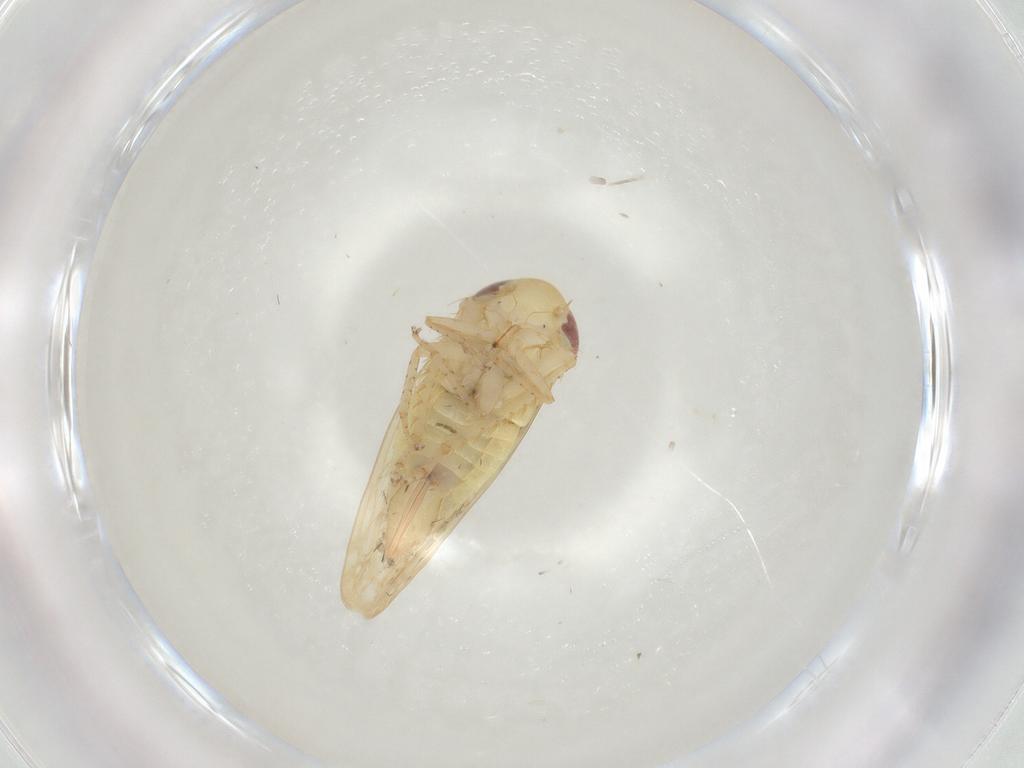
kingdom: Animalia
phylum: Arthropoda
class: Insecta
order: Hemiptera
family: Cicadellidae
